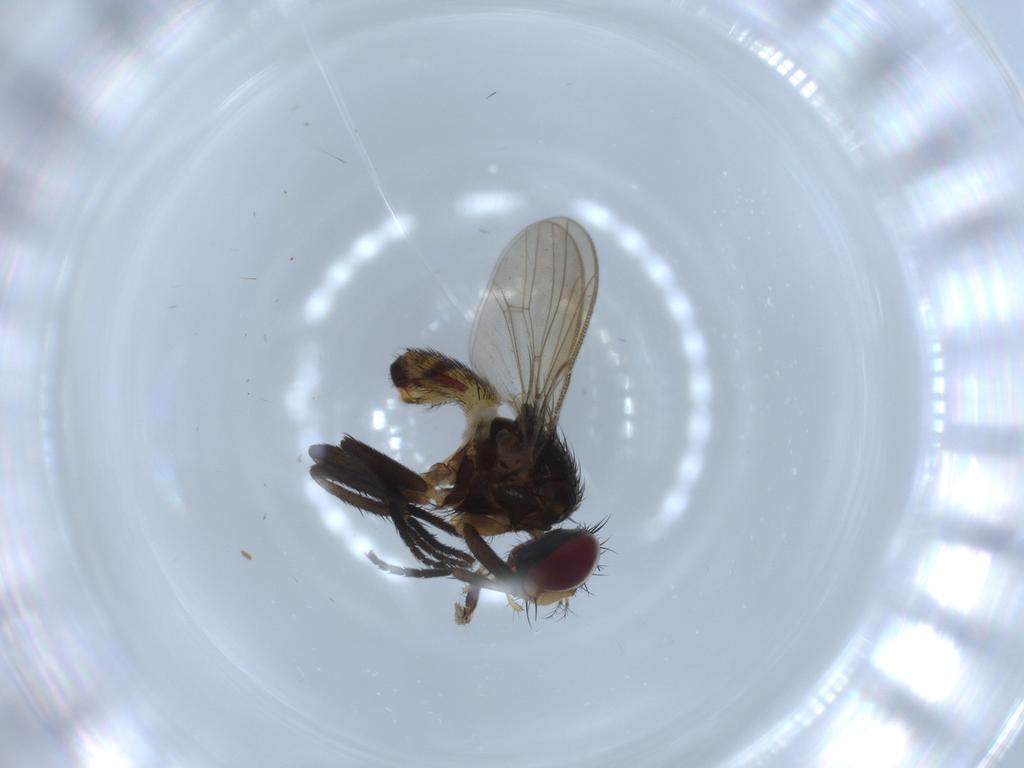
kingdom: Animalia
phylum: Arthropoda
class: Insecta
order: Diptera
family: Anthomyiidae
